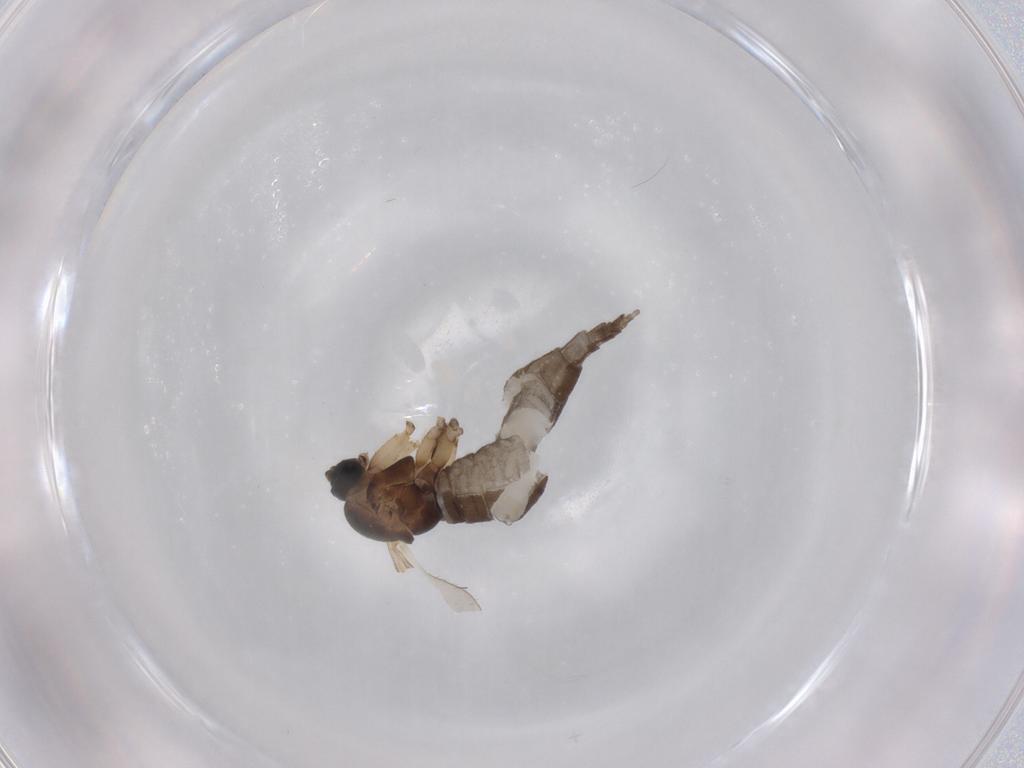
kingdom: Animalia
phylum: Arthropoda
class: Insecta
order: Diptera
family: Sciaridae
